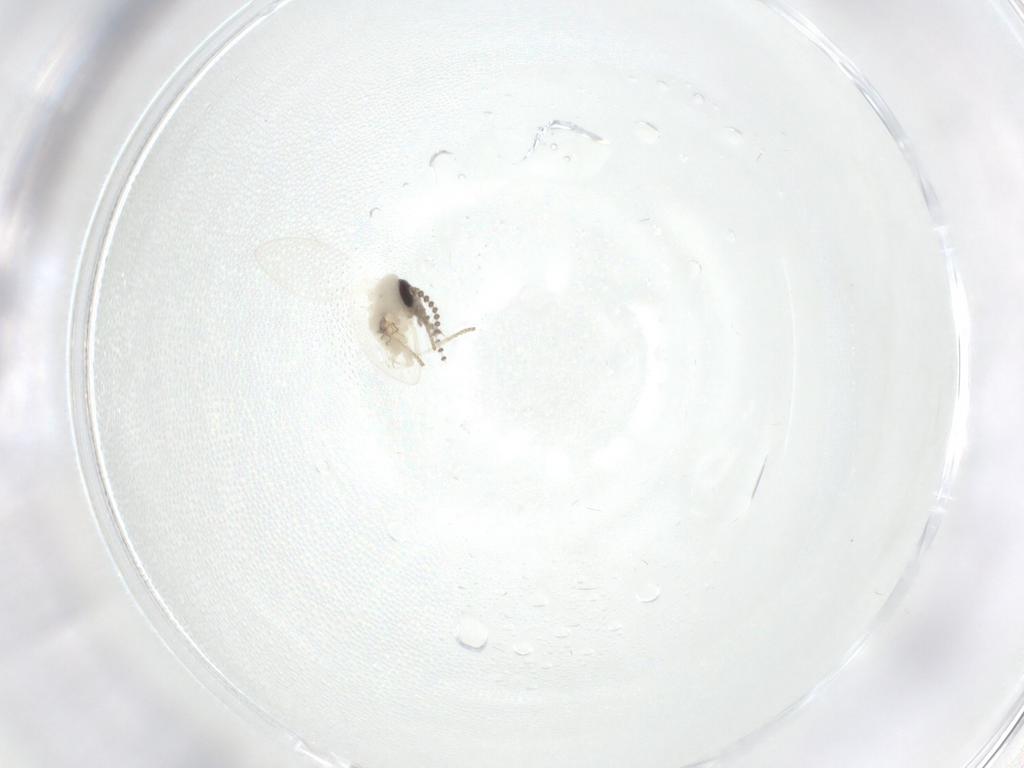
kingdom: Animalia
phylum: Arthropoda
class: Insecta
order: Diptera
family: Psychodidae
